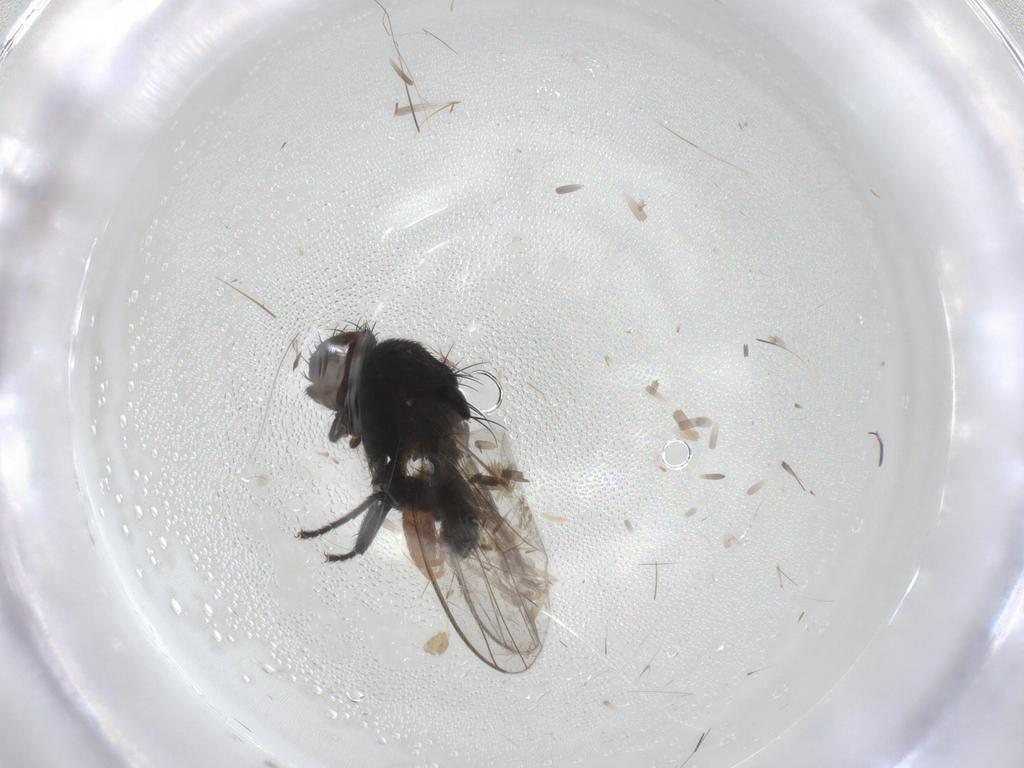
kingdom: Animalia
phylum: Arthropoda
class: Insecta
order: Diptera
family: Milichiidae
